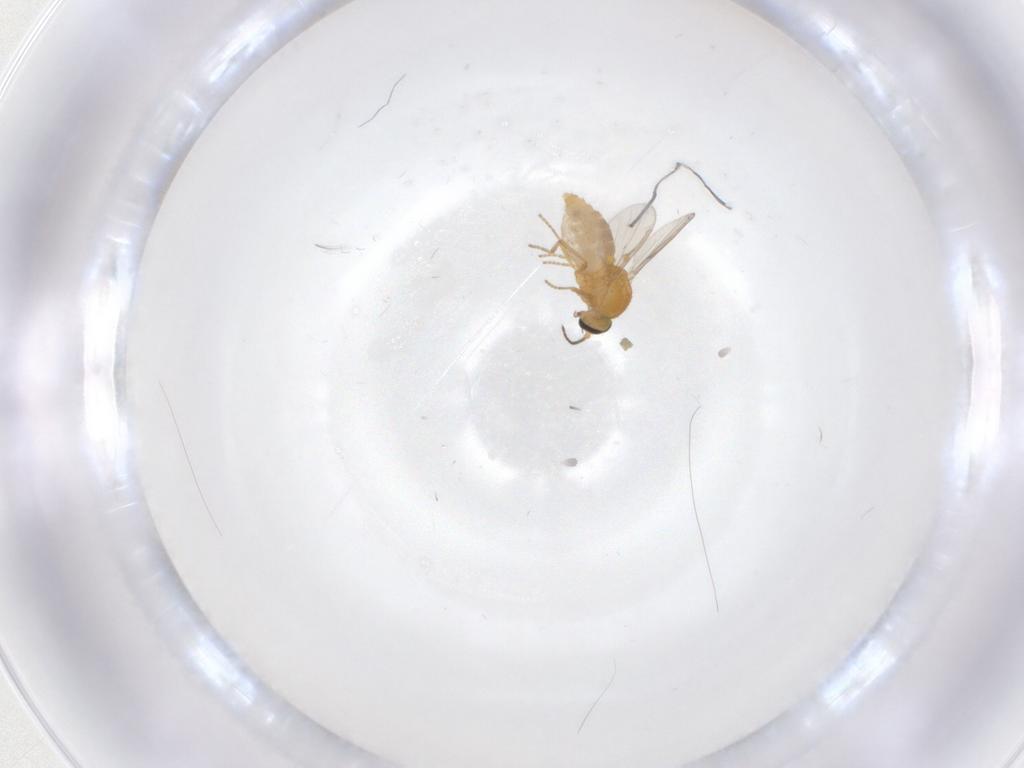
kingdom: Animalia
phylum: Arthropoda
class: Insecta
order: Diptera
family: Ceratopogonidae
